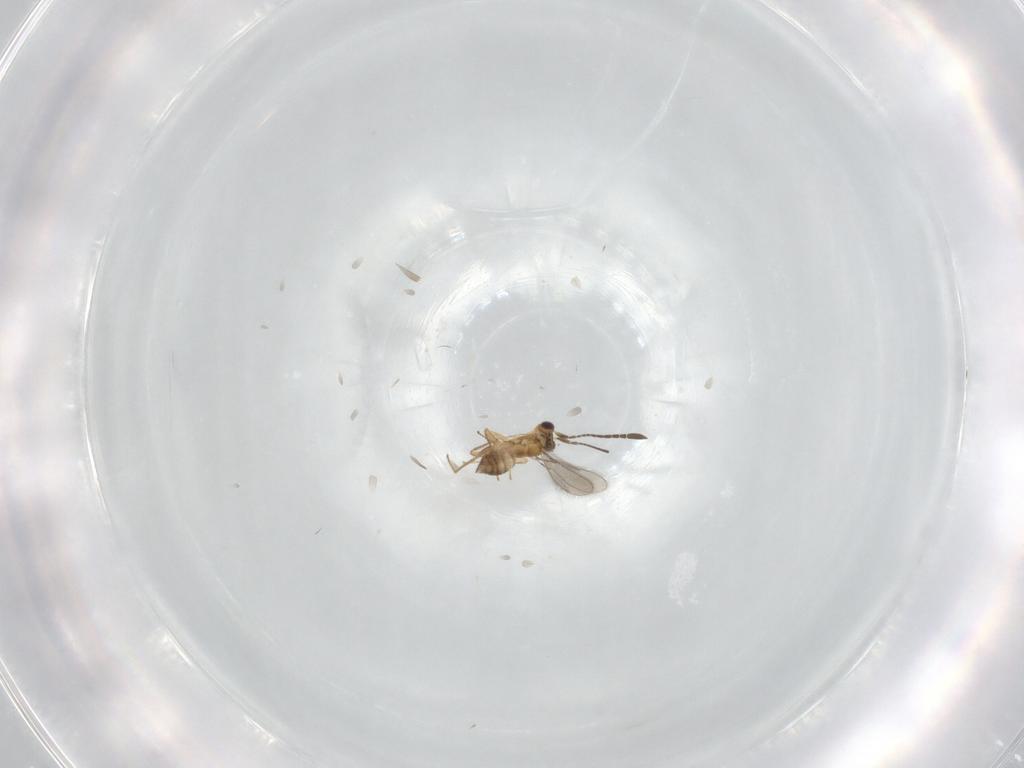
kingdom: Animalia
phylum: Arthropoda
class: Insecta
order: Hymenoptera
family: Mymaridae
